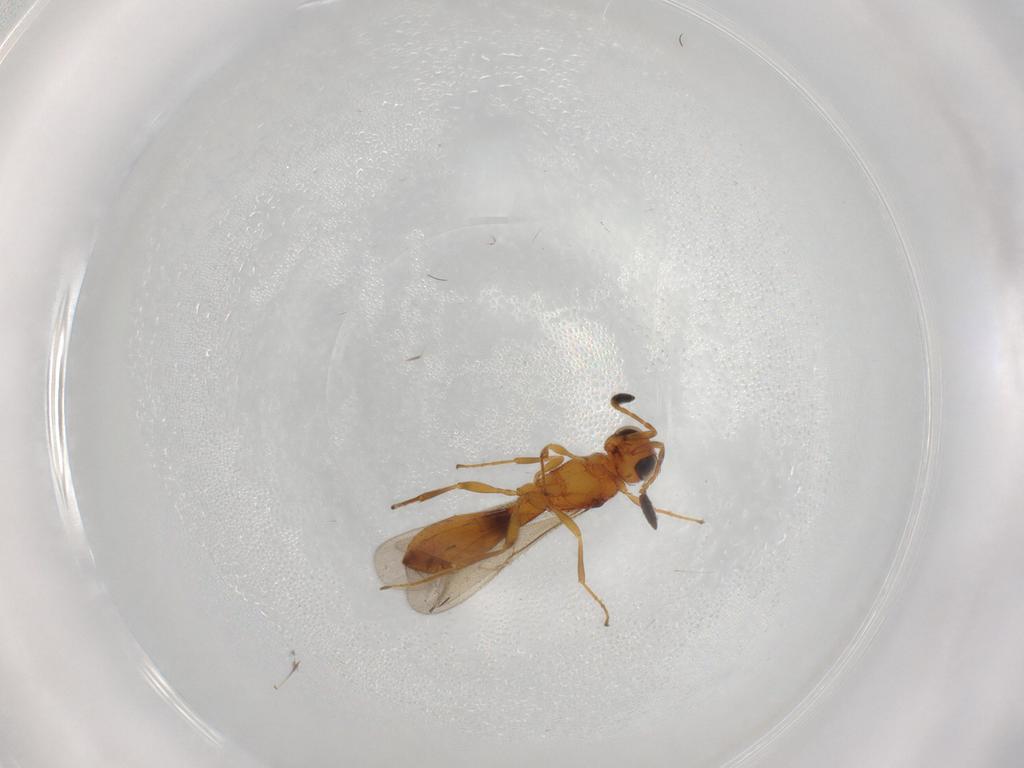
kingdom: Animalia
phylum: Arthropoda
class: Insecta
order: Hymenoptera
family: Scelionidae
